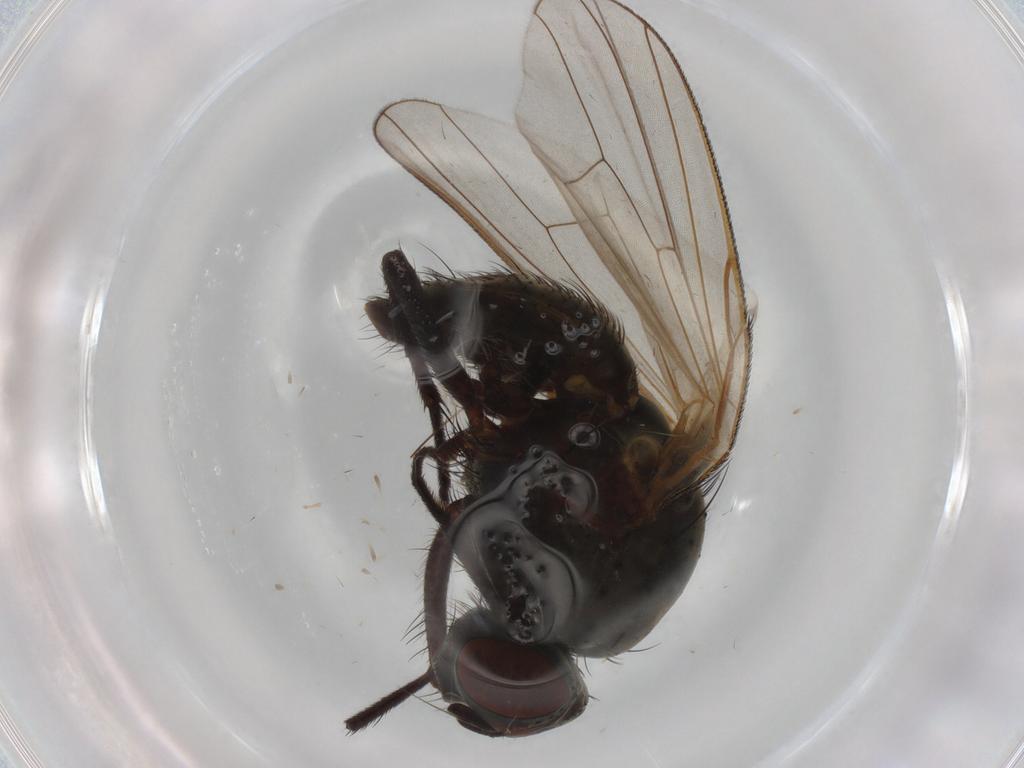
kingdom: Animalia
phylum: Arthropoda
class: Insecta
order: Diptera
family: Anthomyiidae
